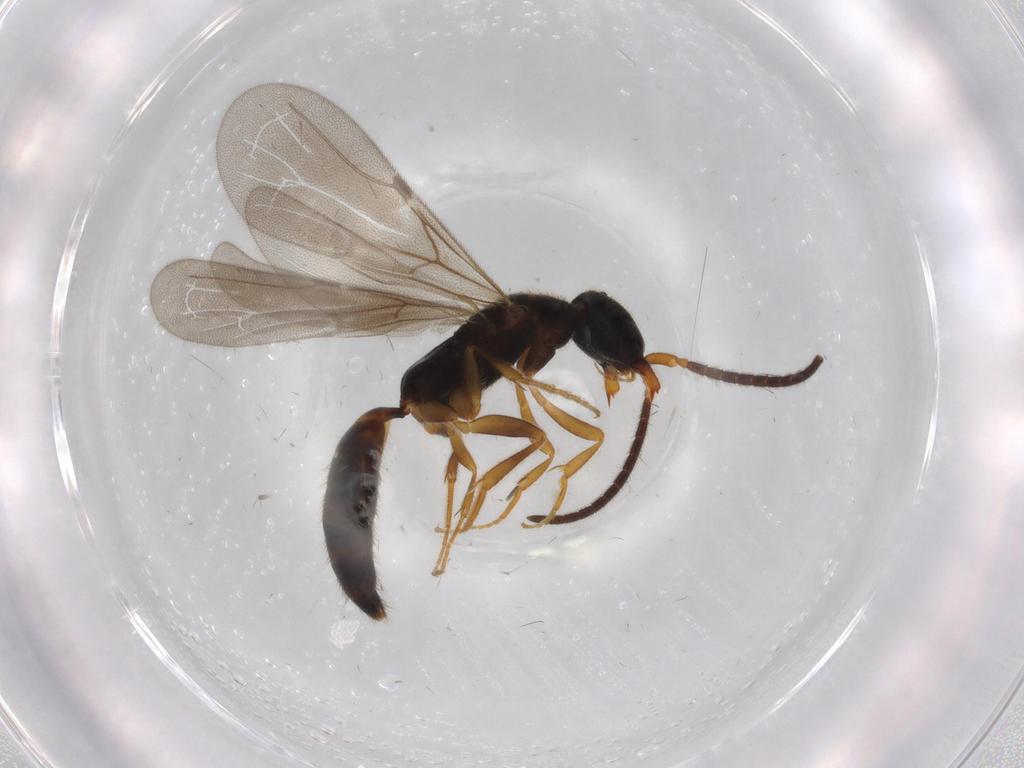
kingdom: Animalia
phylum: Arthropoda
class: Insecta
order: Hymenoptera
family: Bethylidae
